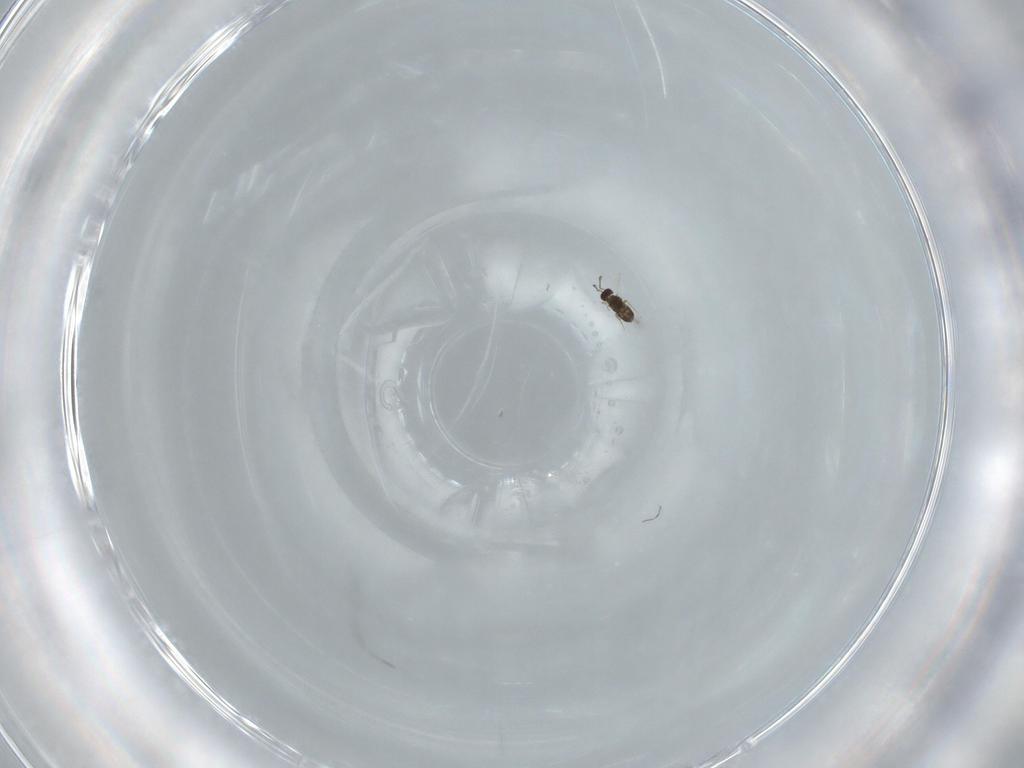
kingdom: Animalia
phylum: Arthropoda
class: Insecta
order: Hymenoptera
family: Mymaridae
